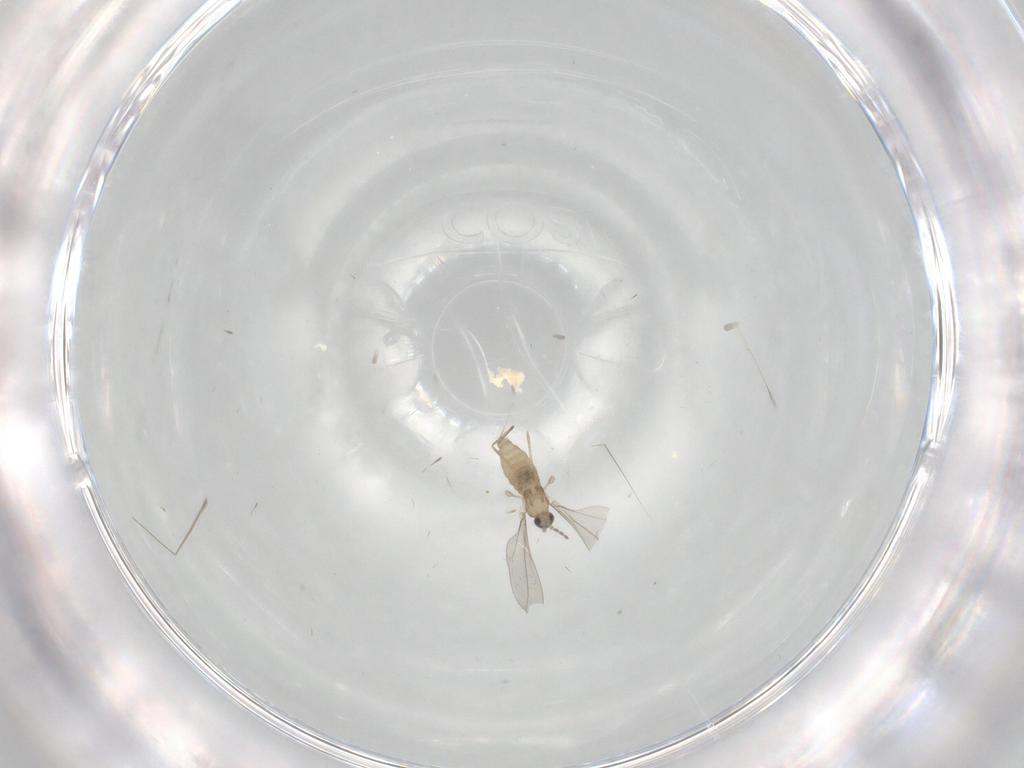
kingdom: Animalia
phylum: Arthropoda
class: Insecta
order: Diptera
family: Cecidomyiidae
